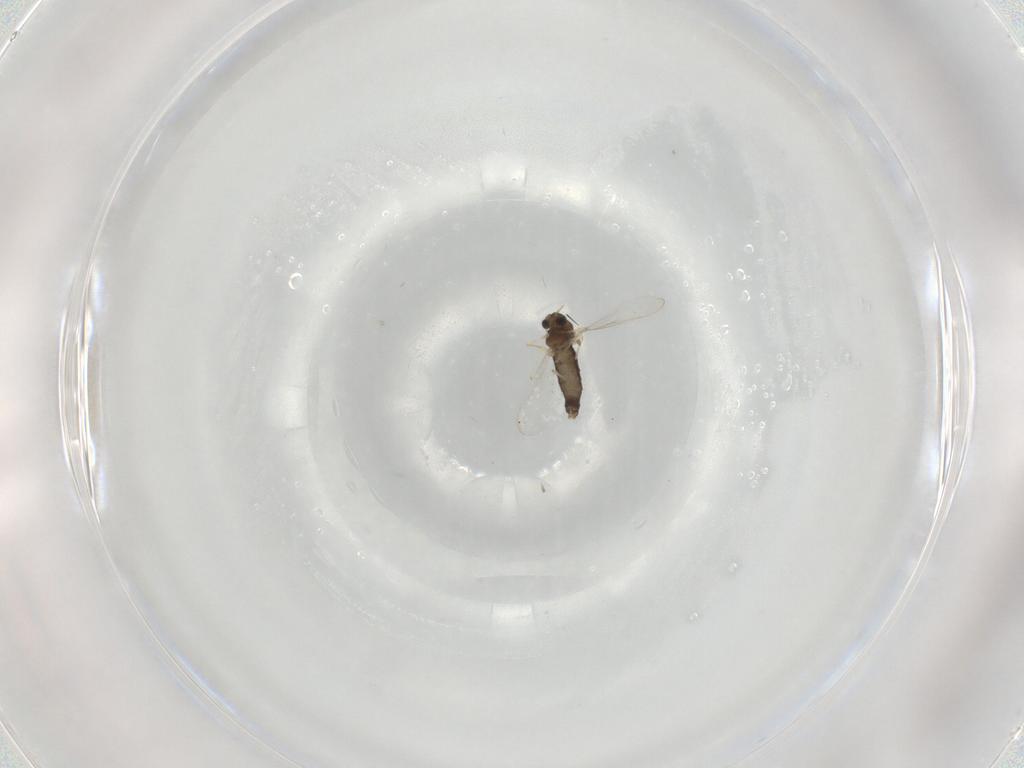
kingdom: Animalia
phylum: Arthropoda
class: Insecta
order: Diptera
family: Chironomidae
